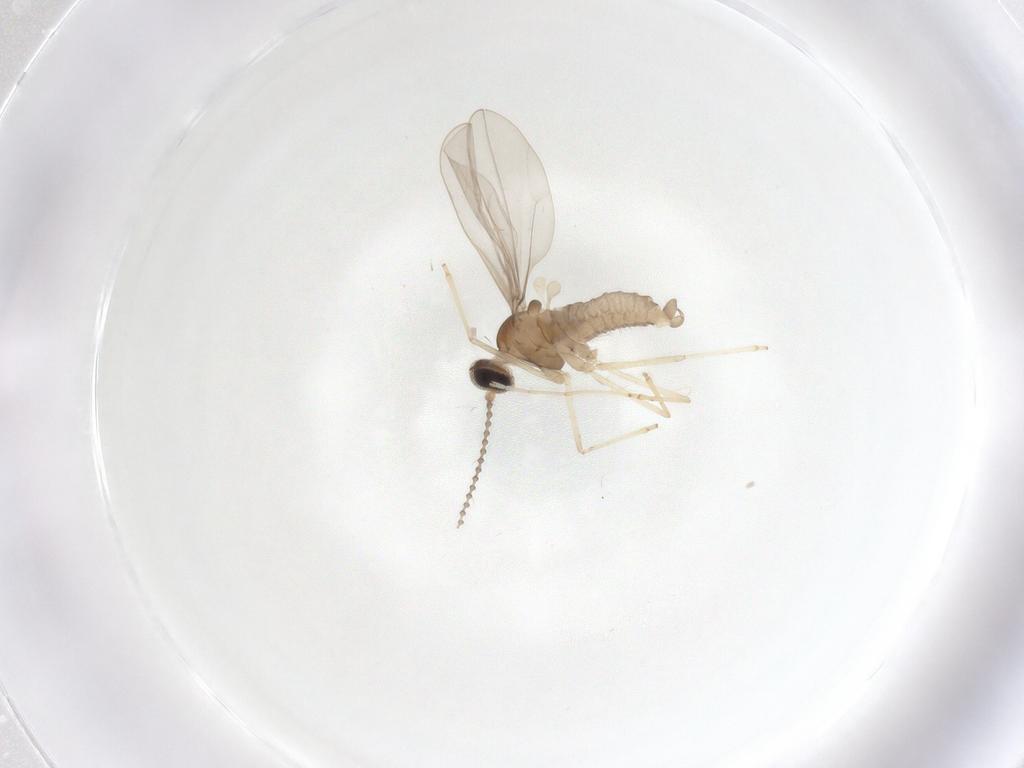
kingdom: Animalia
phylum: Arthropoda
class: Insecta
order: Diptera
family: Cecidomyiidae
